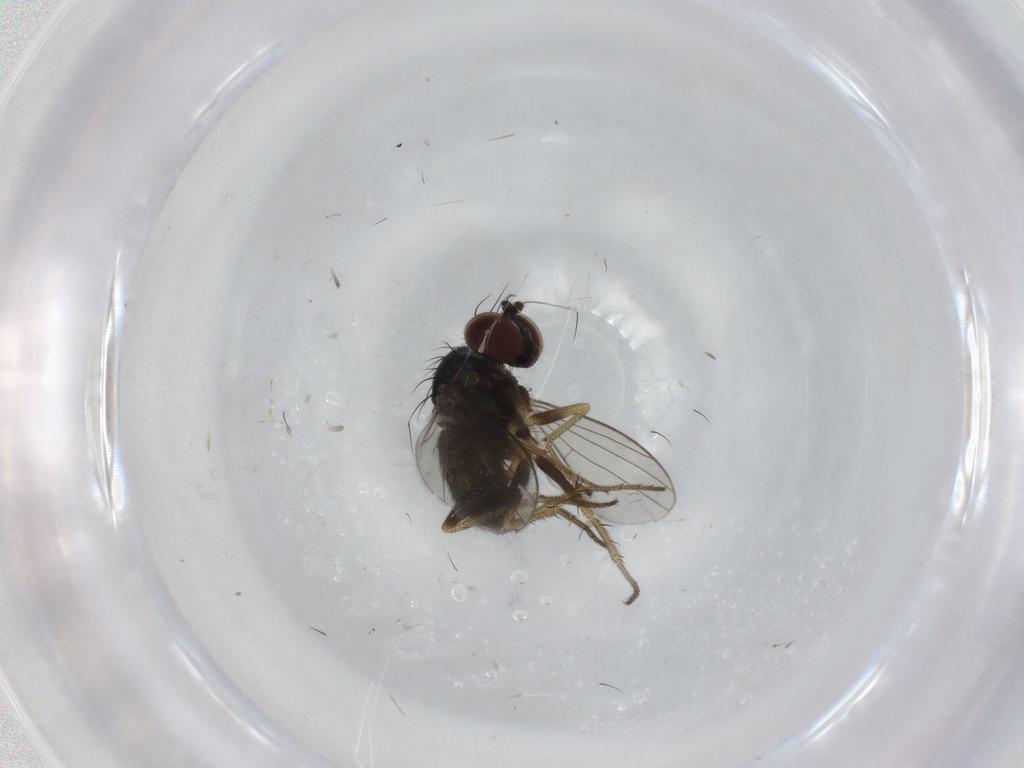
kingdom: Animalia
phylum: Arthropoda
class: Insecta
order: Diptera
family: Dolichopodidae
